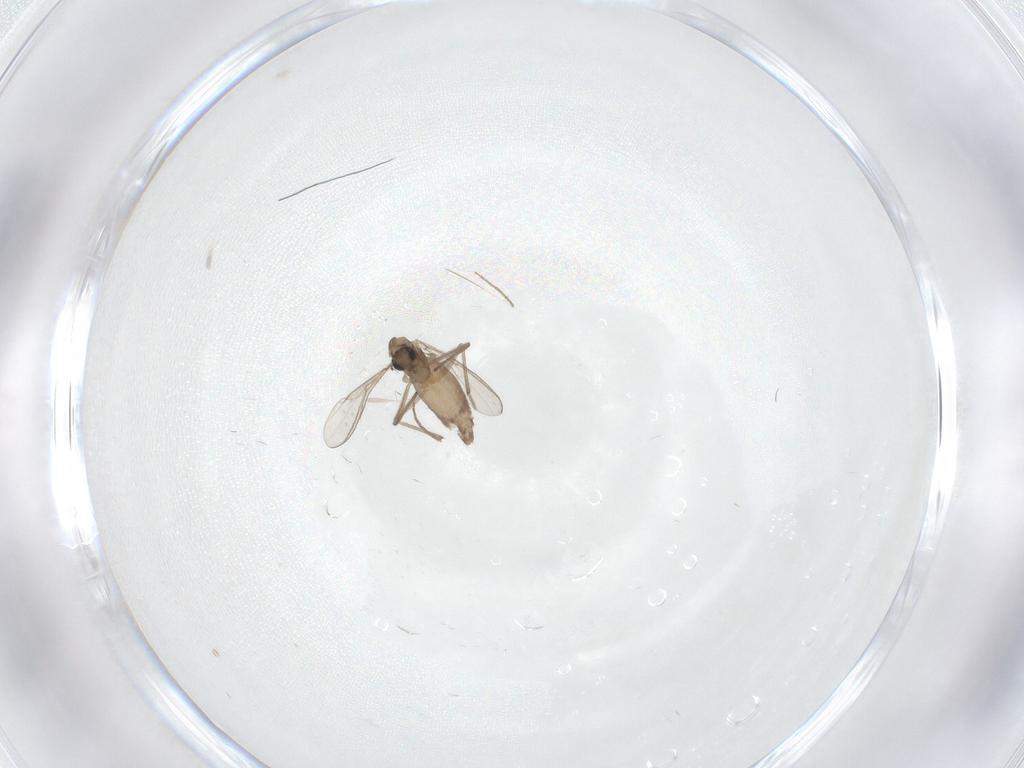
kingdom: Animalia
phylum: Arthropoda
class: Insecta
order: Diptera
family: Chironomidae
